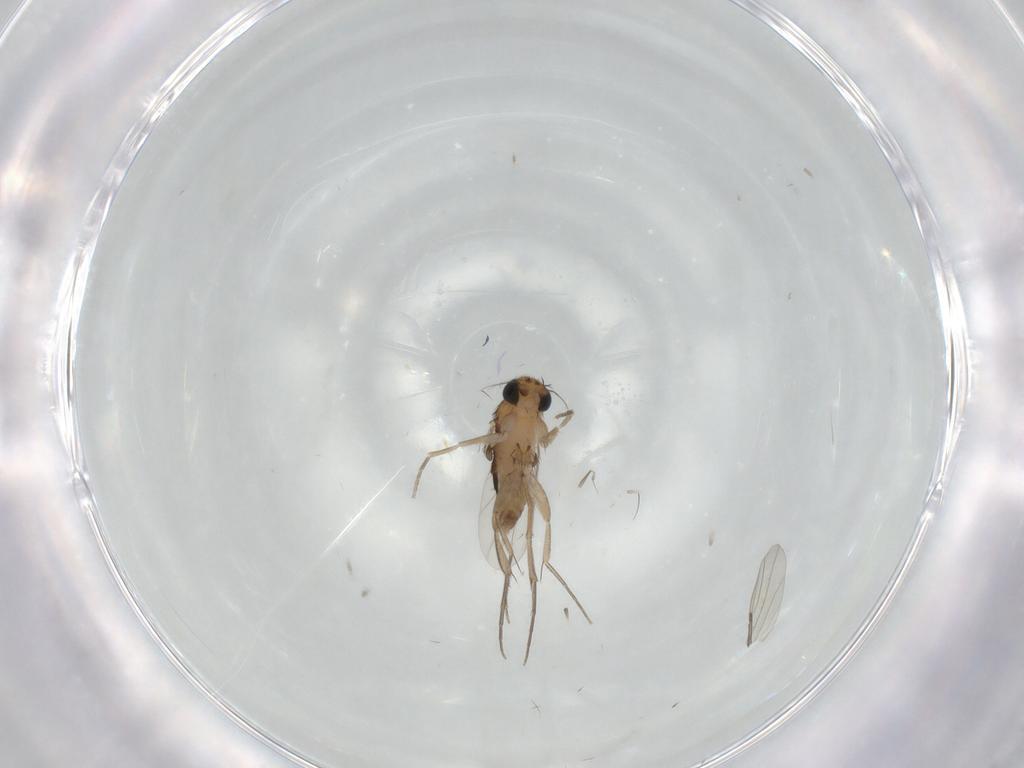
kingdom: Animalia
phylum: Arthropoda
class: Insecta
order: Diptera
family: Phoridae
